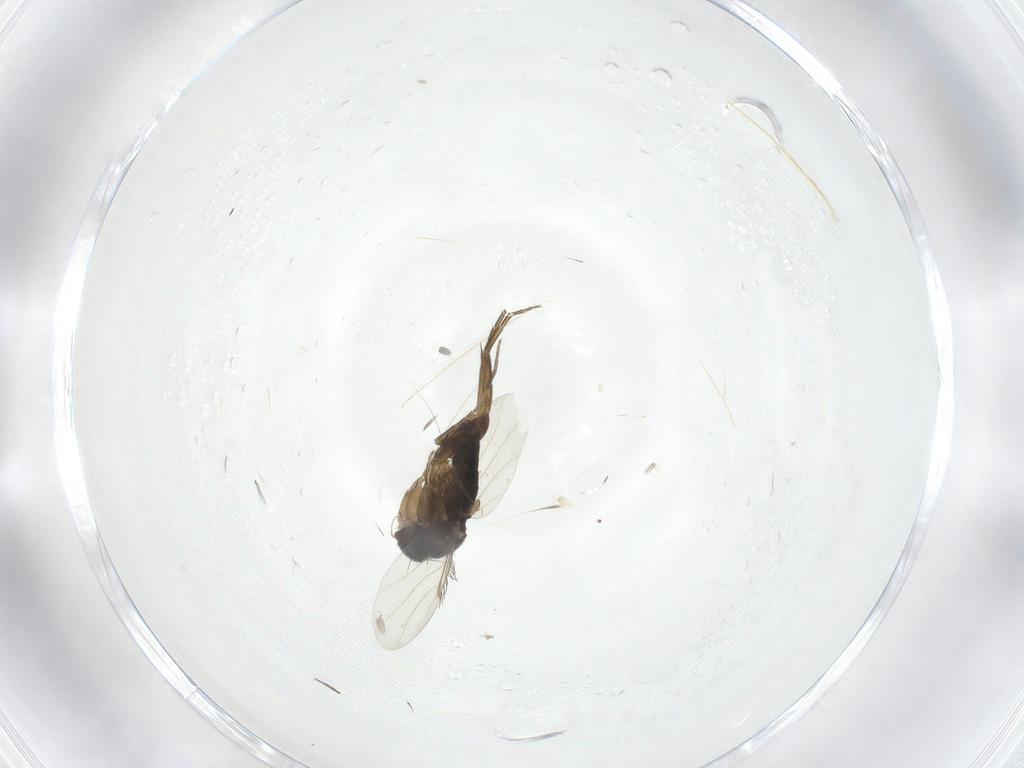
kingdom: Animalia
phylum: Arthropoda
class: Insecta
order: Diptera
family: Phoridae
